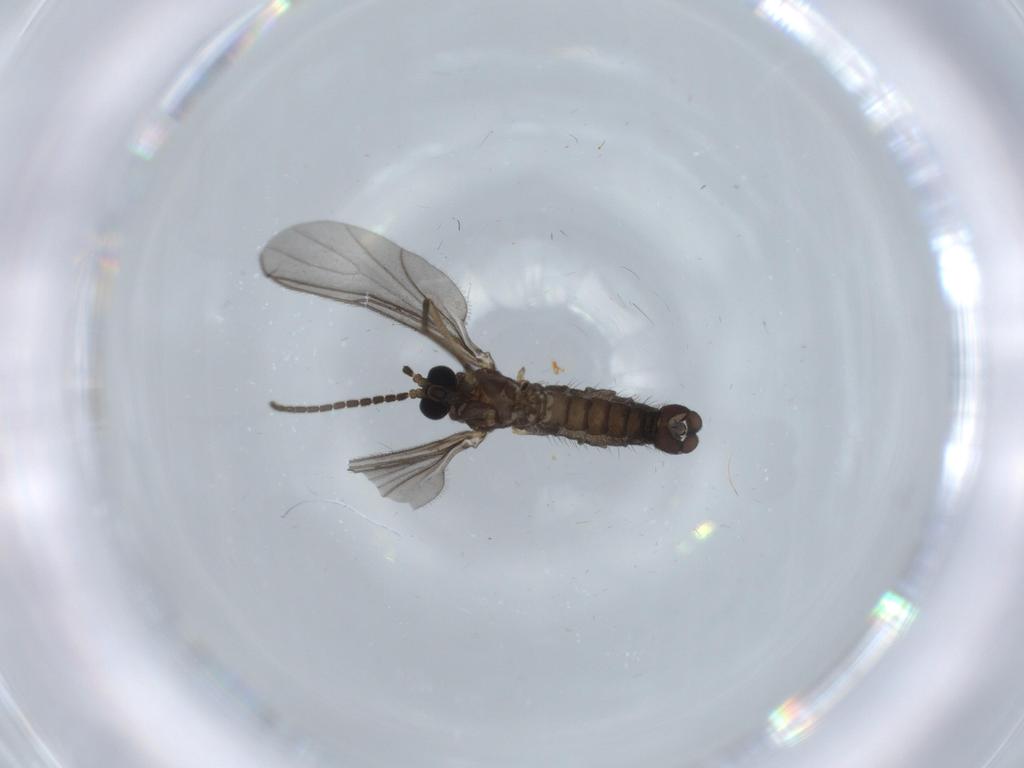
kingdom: Animalia
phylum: Arthropoda
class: Insecta
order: Diptera
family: Sciaridae
